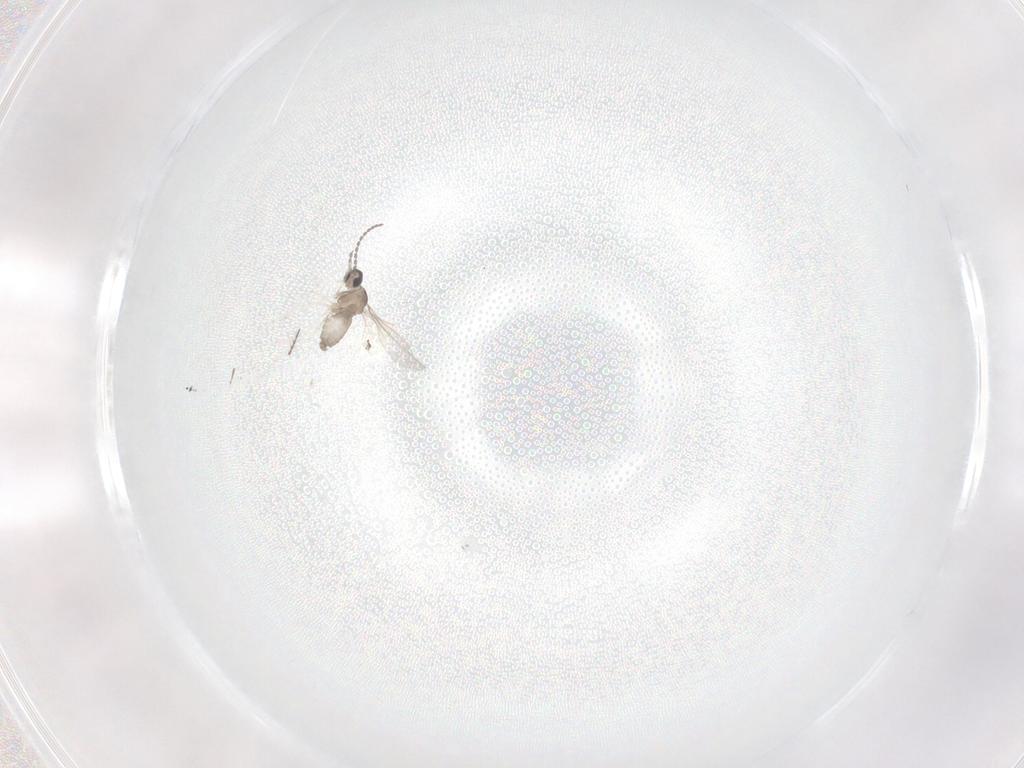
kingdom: Animalia
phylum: Arthropoda
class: Insecta
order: Diptera
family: Cecidomyiidae
